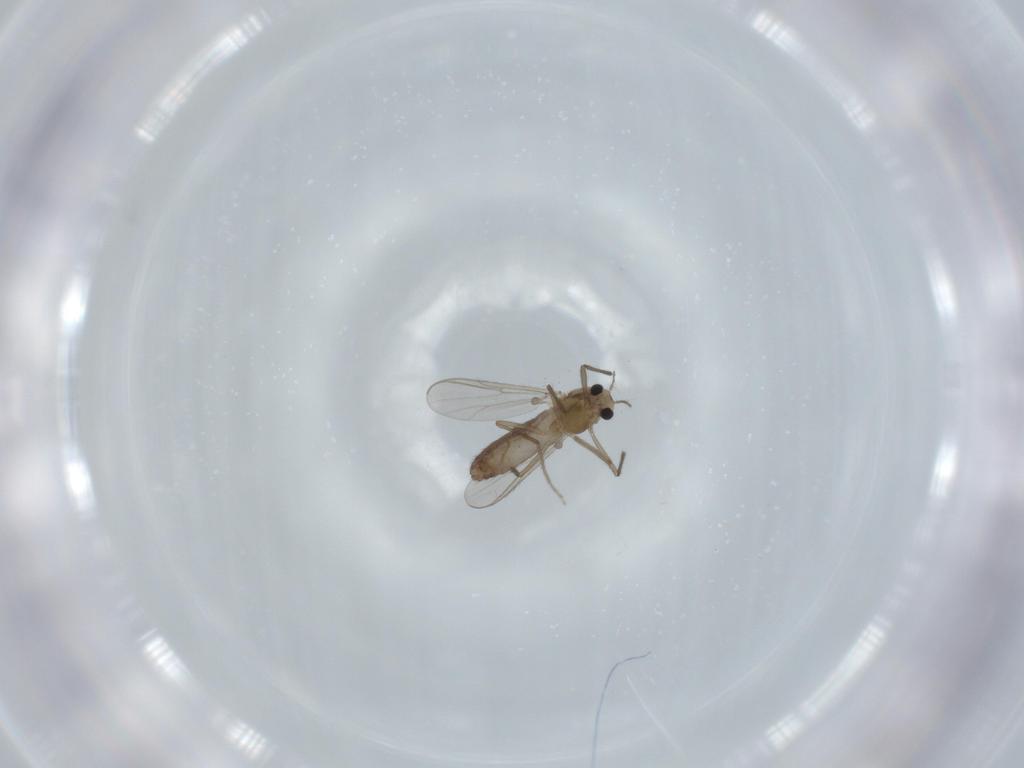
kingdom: Animalia
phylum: Arthropoda
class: Insecta
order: Diptera
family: Chironomidae
